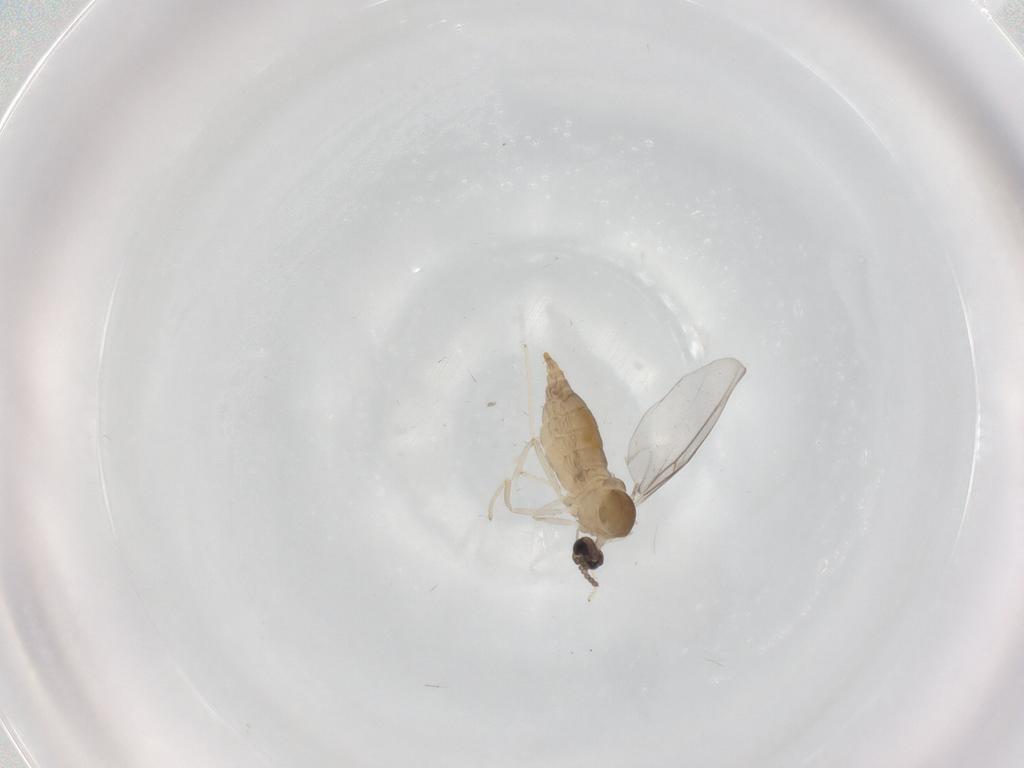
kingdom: Animalia
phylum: Arthropoda
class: Insecta
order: Diptera
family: Cecidomyiidae
